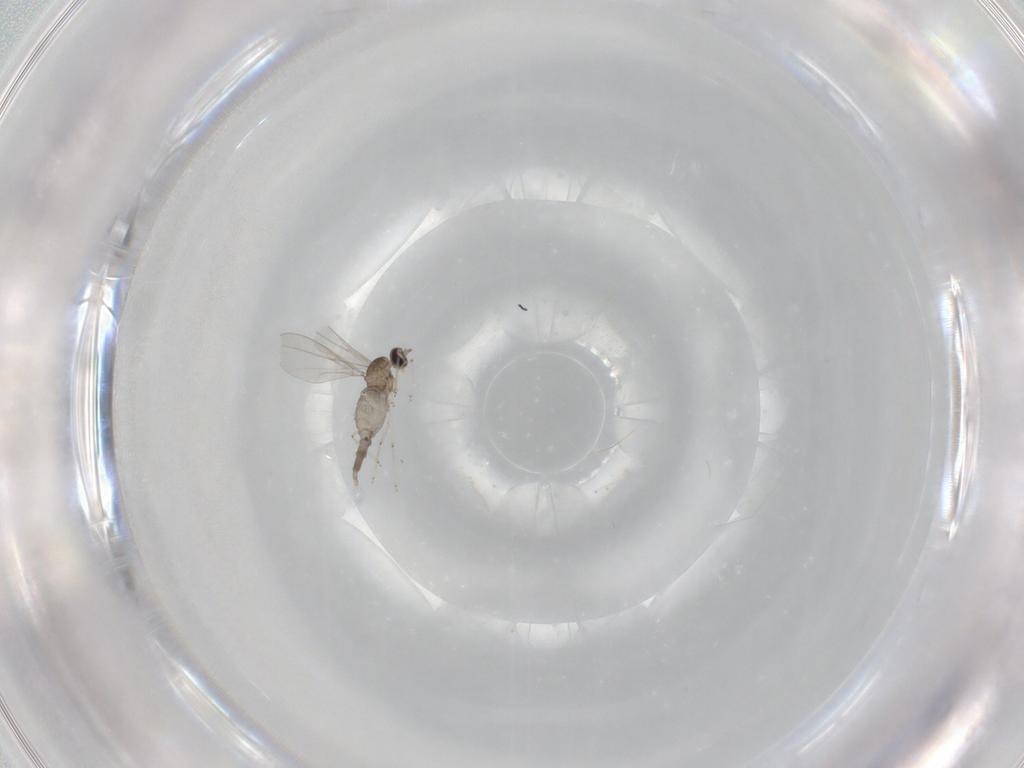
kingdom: Animalia
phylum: Arthropoda
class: Insecta
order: Diptera
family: Cecidomyiidae
